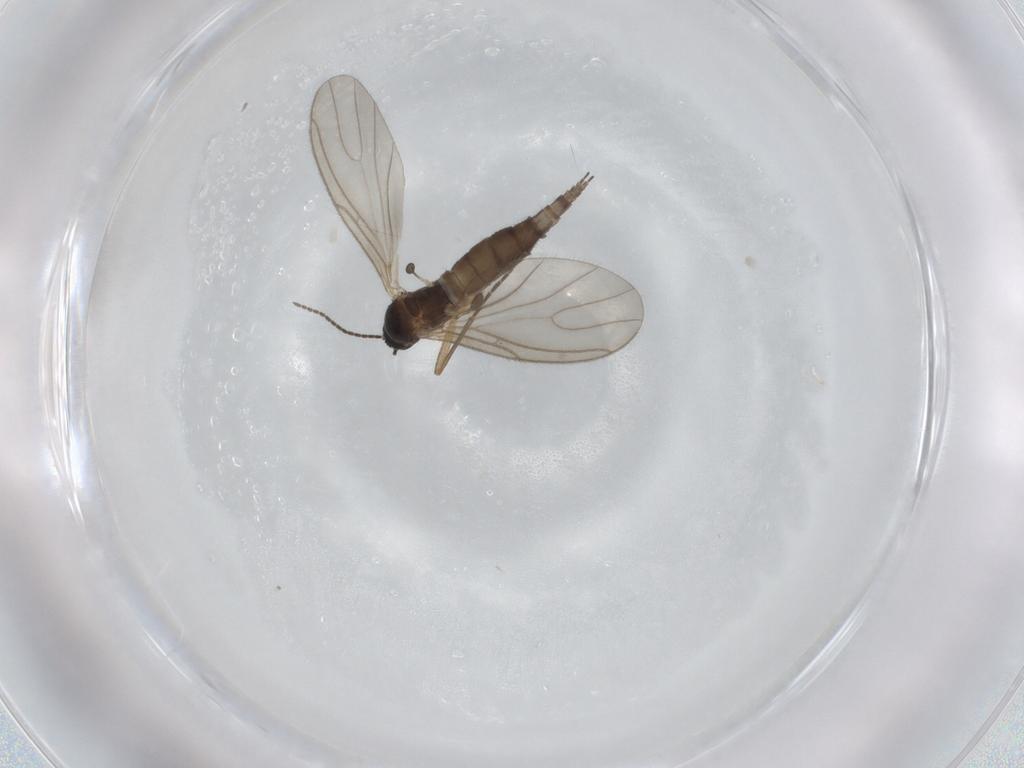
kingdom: Animalia
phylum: Arthropoda
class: Insecta
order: Diptera
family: Sciaridae
